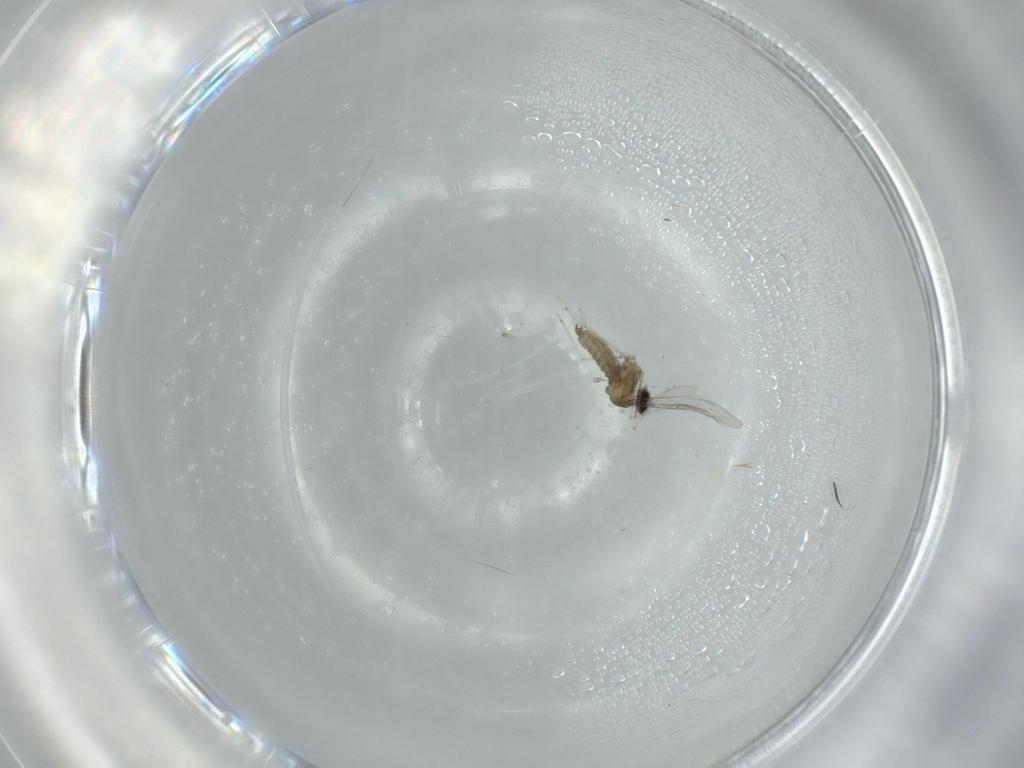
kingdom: Animalia
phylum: Arthropoda
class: Insecta
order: Diptera
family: Cecidomyiidae
